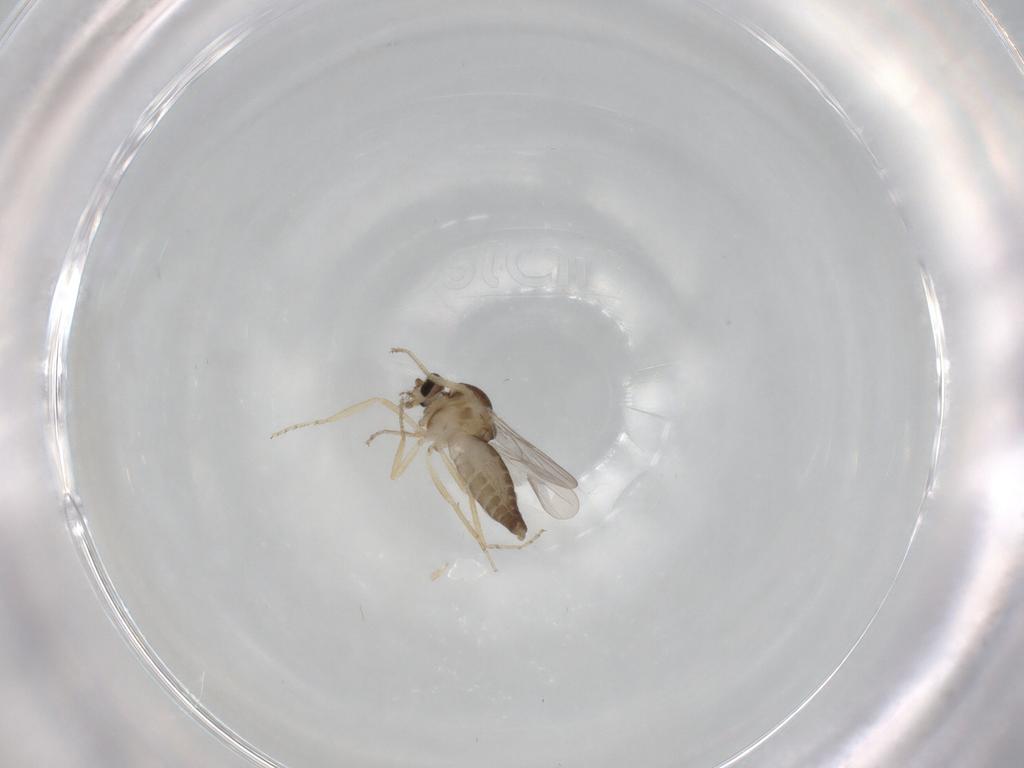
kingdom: Animalia
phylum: Arthropoda
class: Insecta
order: Diptera
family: Ceratopogonidae
